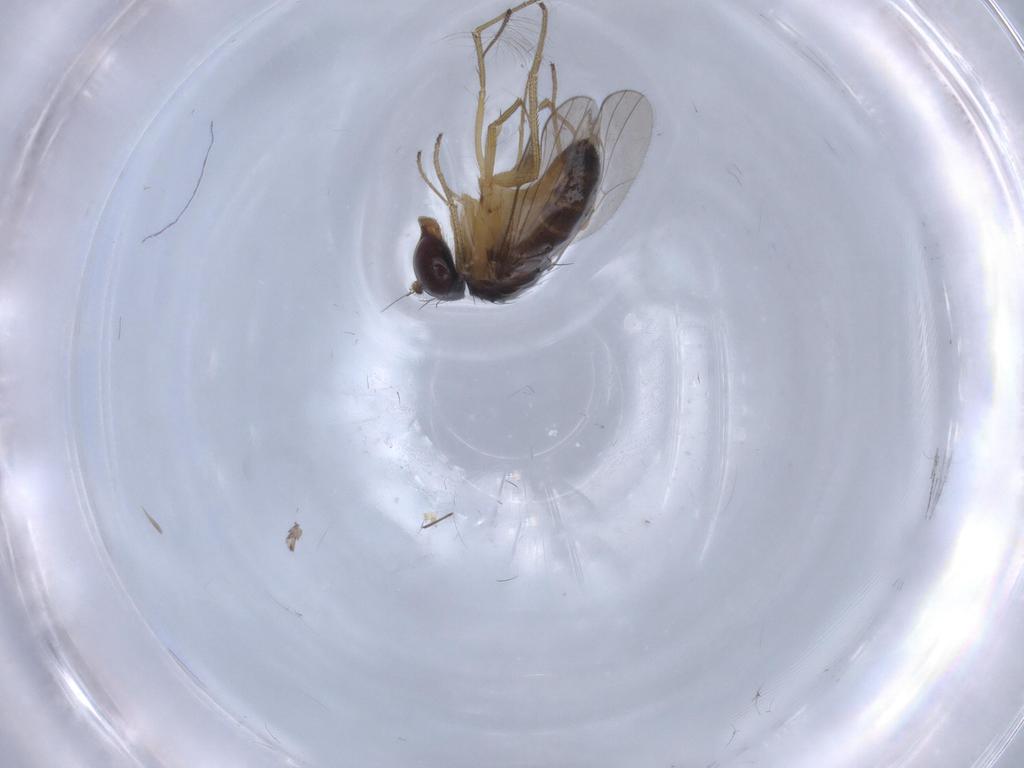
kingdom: Animalia
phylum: Arthropoda
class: Insecta
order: Diptera
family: Dolichopodidae
